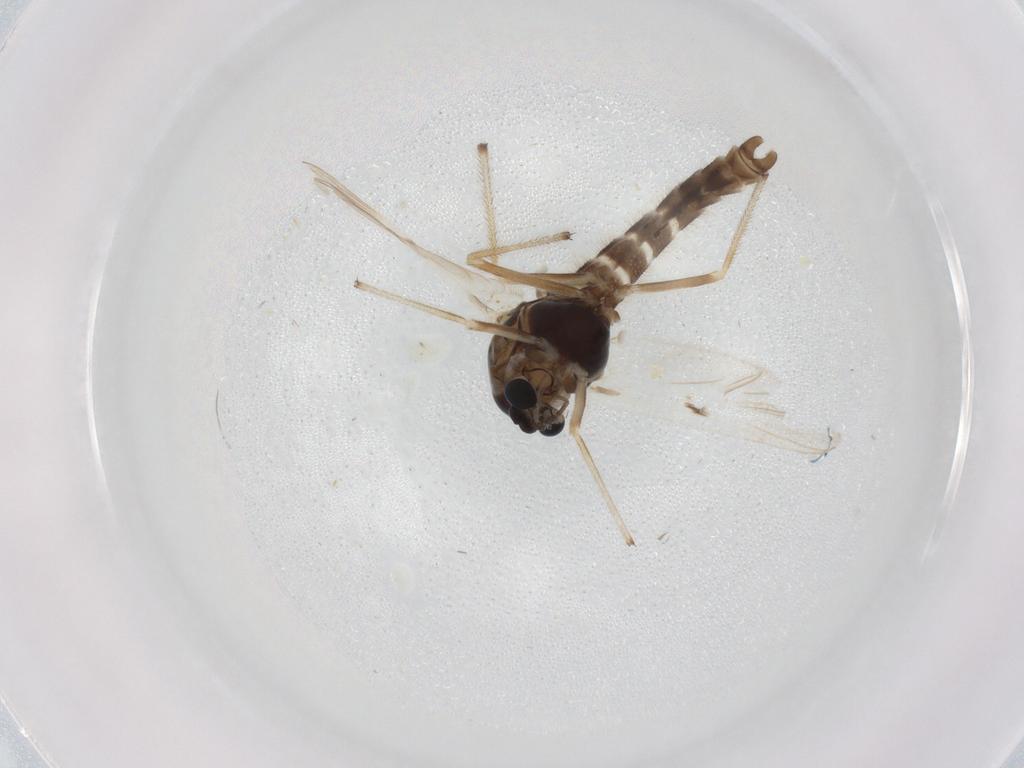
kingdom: Animalia
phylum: Arthropoda
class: Insecta
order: Diptera
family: Chironomidae
